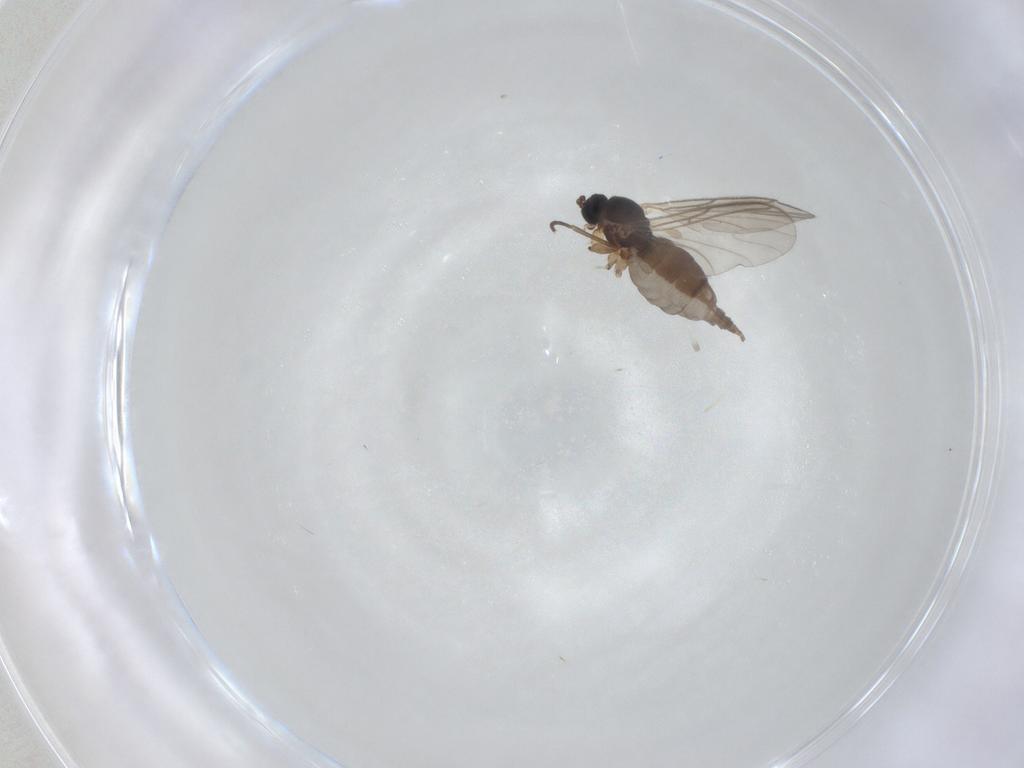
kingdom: Animalia
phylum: Arthropoda
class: Insecta
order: Diptera
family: Sciaridae
